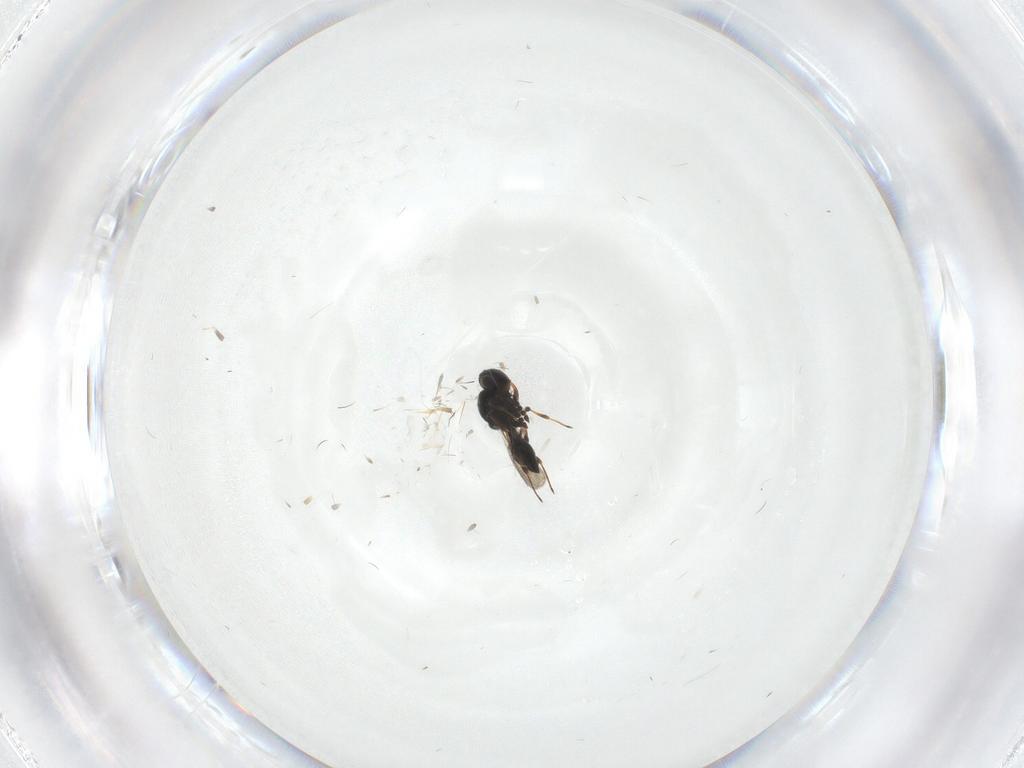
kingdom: Animalia
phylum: Arthropoda
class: Insecta
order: Hymenoptera
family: Platygastridae
